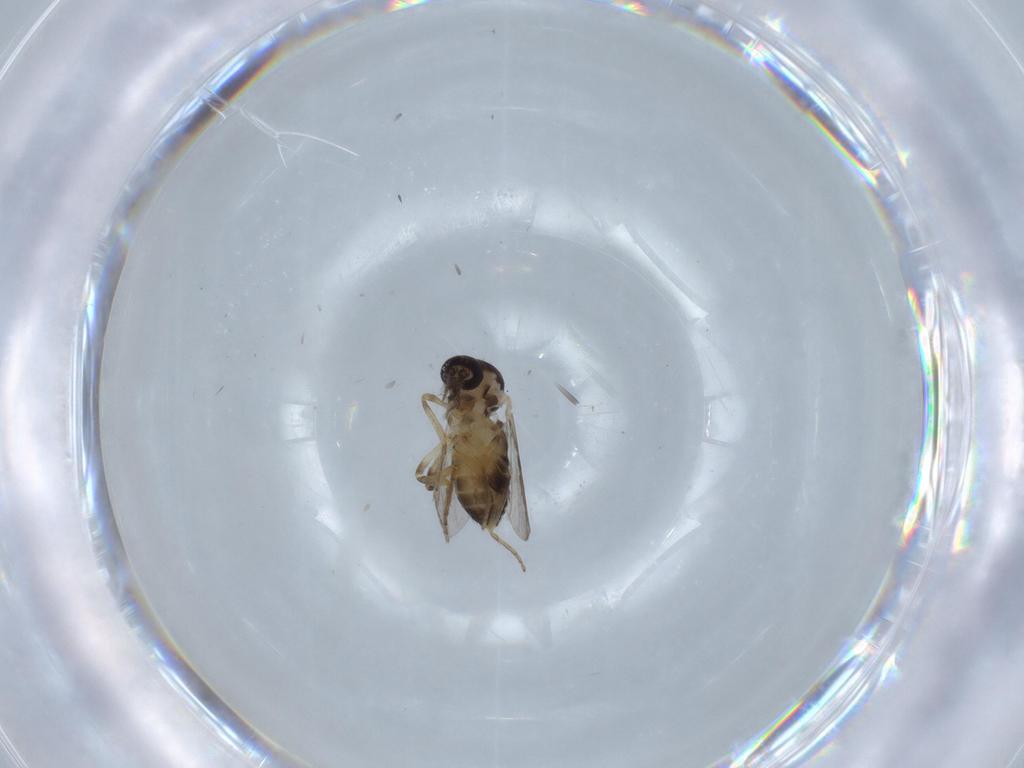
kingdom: Animalia
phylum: Arthropoda
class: Insecta
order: Diptera
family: Ceratopogonidae
